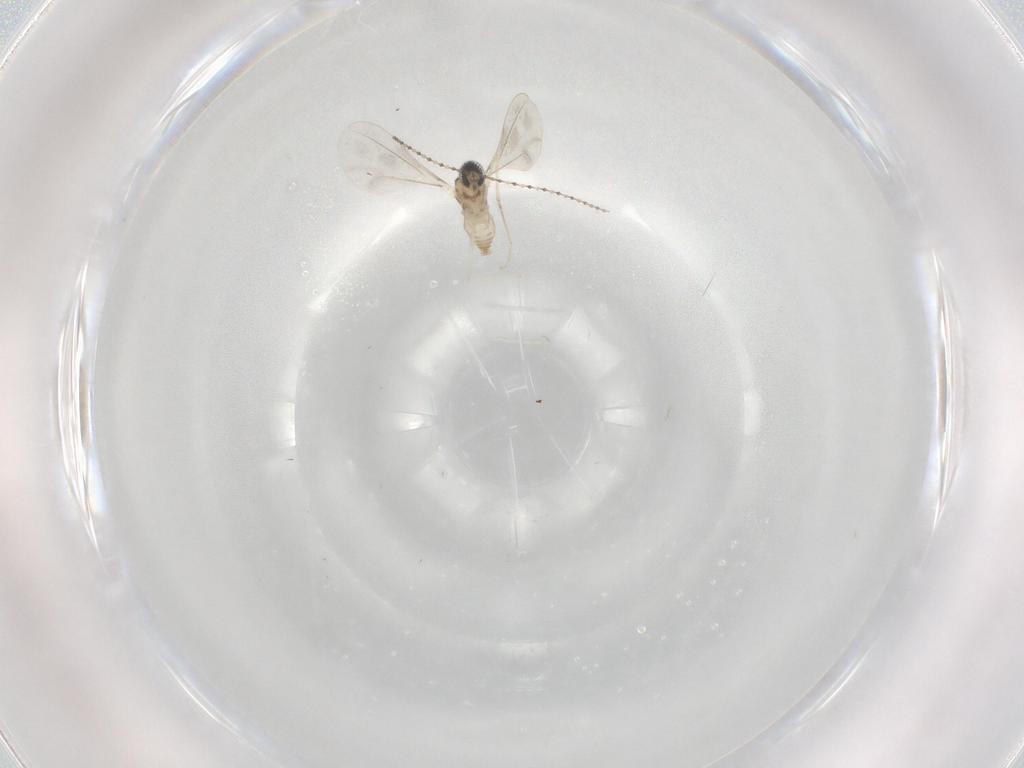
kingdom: Animalia
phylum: Arthropoda
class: Insecta
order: Diptera
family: Cecidomyiidae
